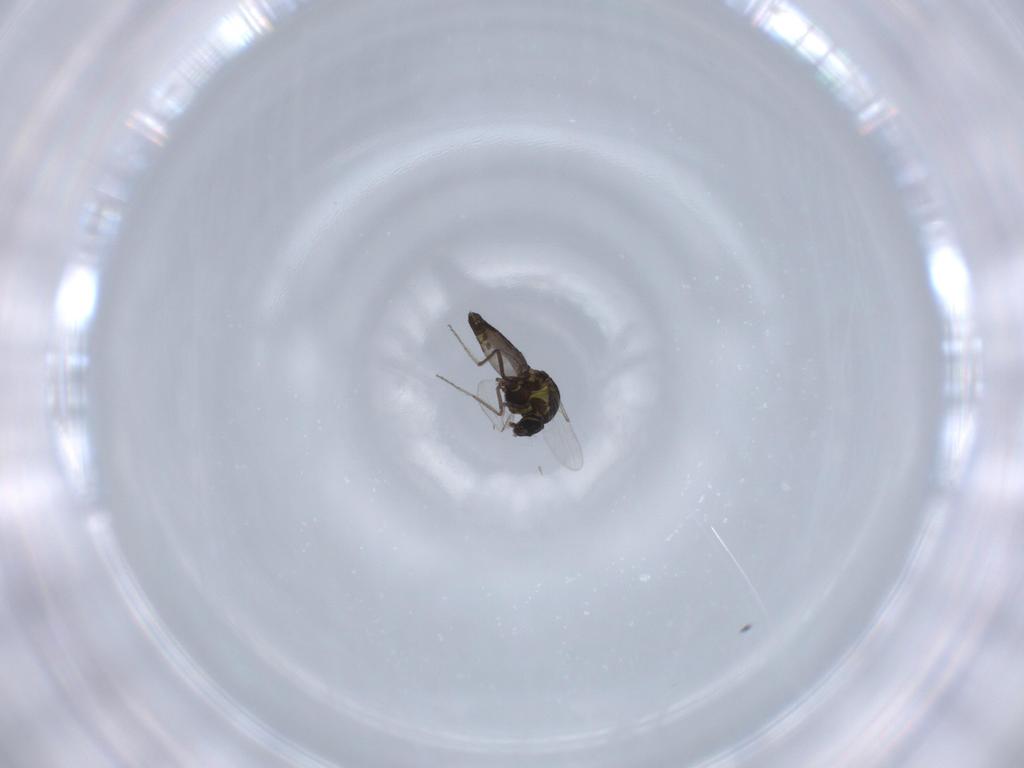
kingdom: Animalia
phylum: Arthropoda
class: Insecta
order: Diptera
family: Ceratopogonidae
